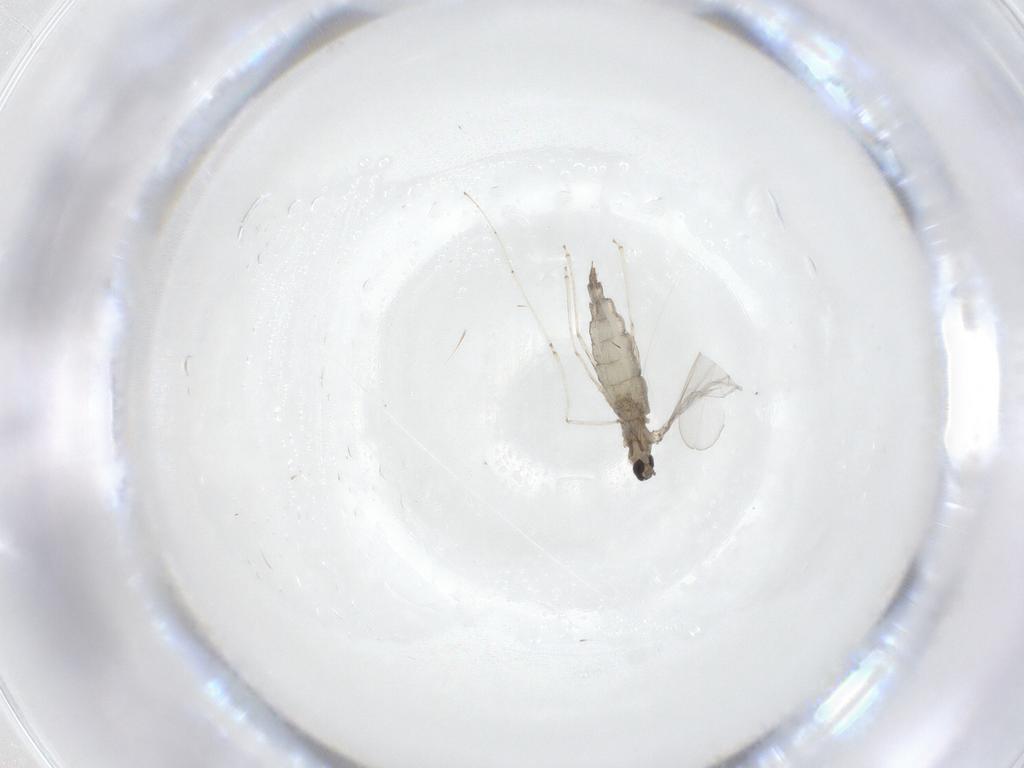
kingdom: Animalia
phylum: Arthropoda
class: Insecta
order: Diptera
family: Cecidomyiidae
